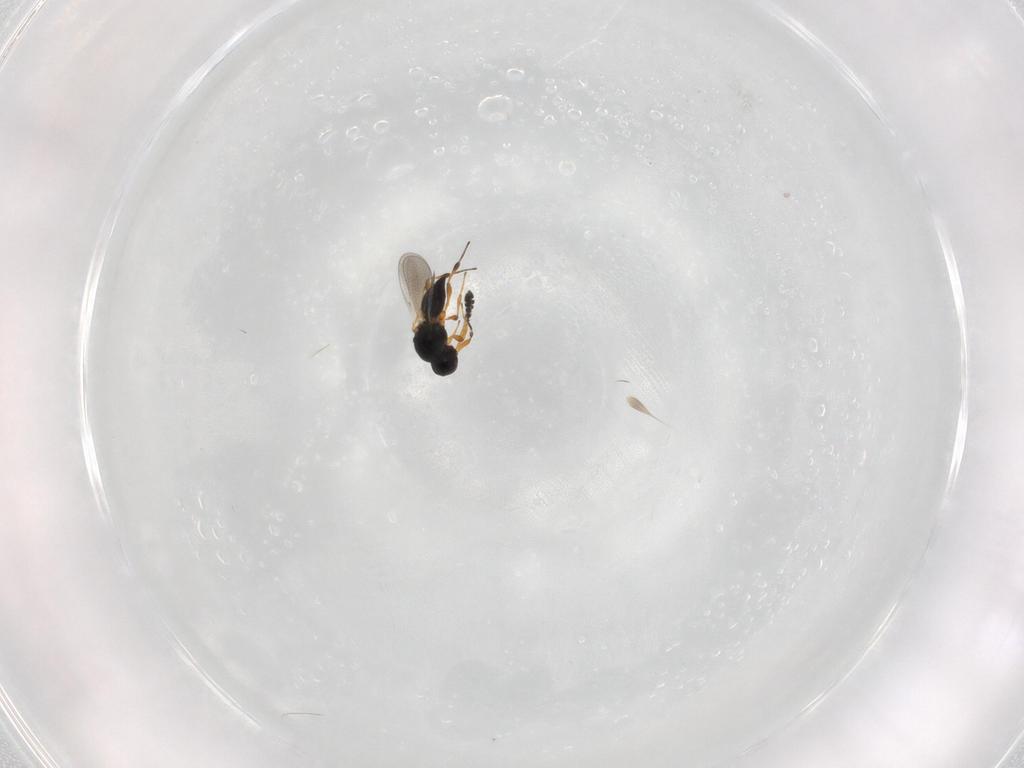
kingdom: Animalia
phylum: Arthropoda
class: Insecta
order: Hymenoptera
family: Platygastridae
